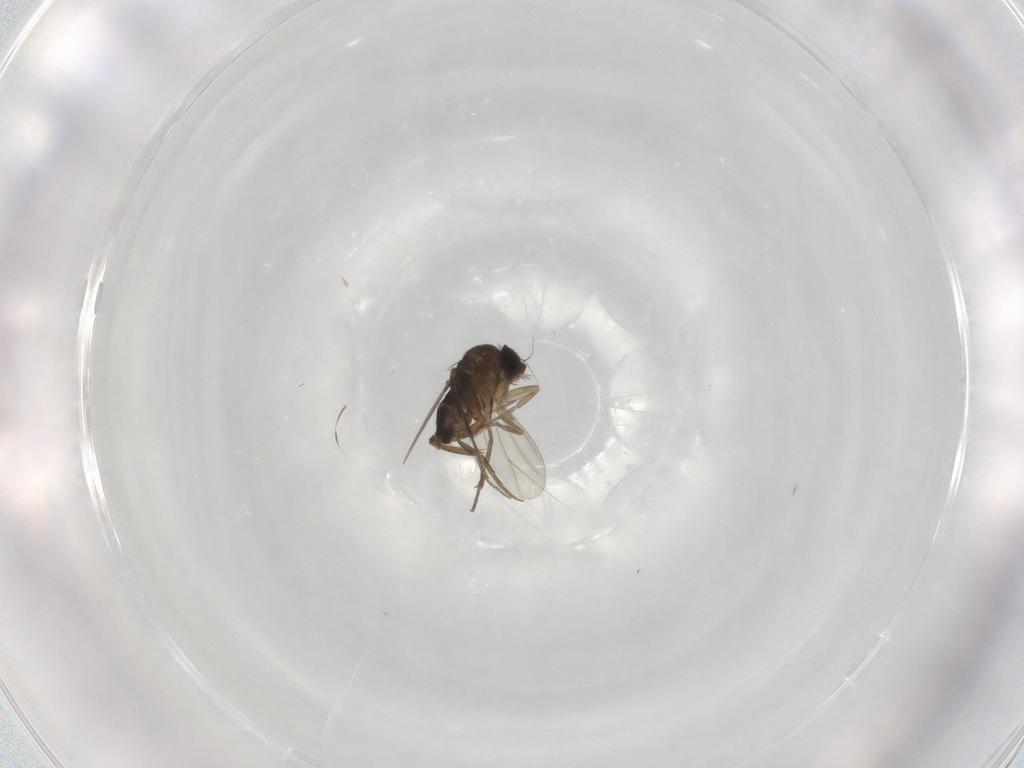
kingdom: Animalia
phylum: Arthropoda
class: Insecta
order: Diptera
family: Phoridae
